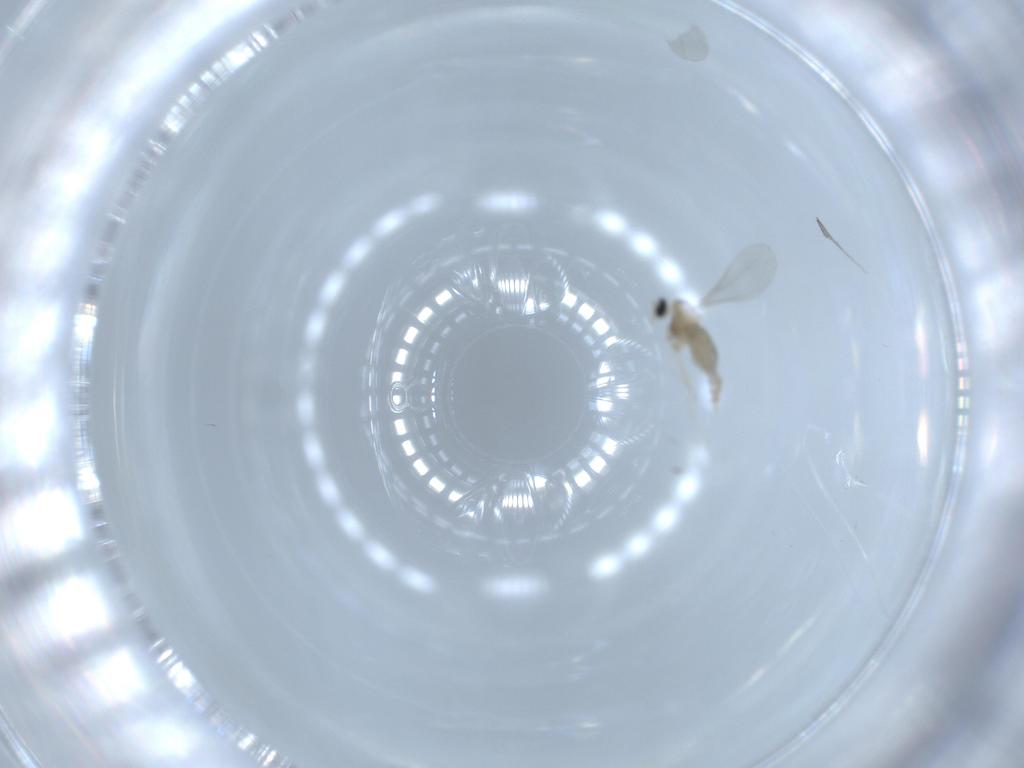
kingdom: Animalia
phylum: Arthropoda
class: Insecta
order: Diptera
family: Cecidomyiidae
